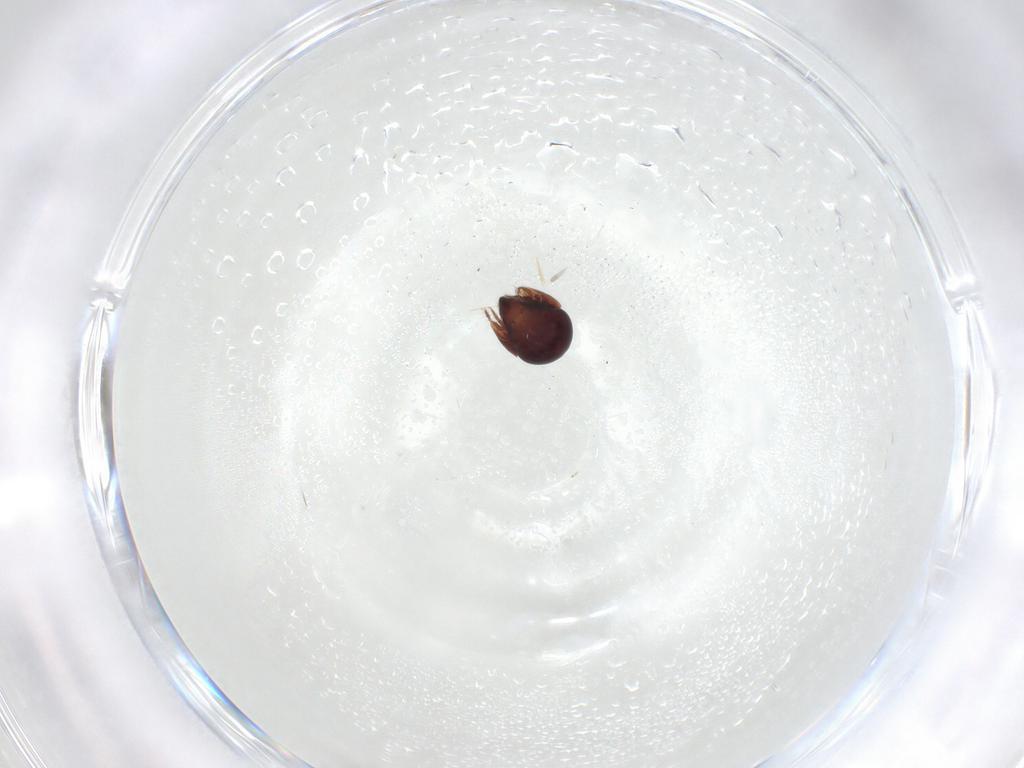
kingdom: Animalia
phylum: Arthropoda
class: Arachnida
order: Sarcoptiformes
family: Galumnidae
